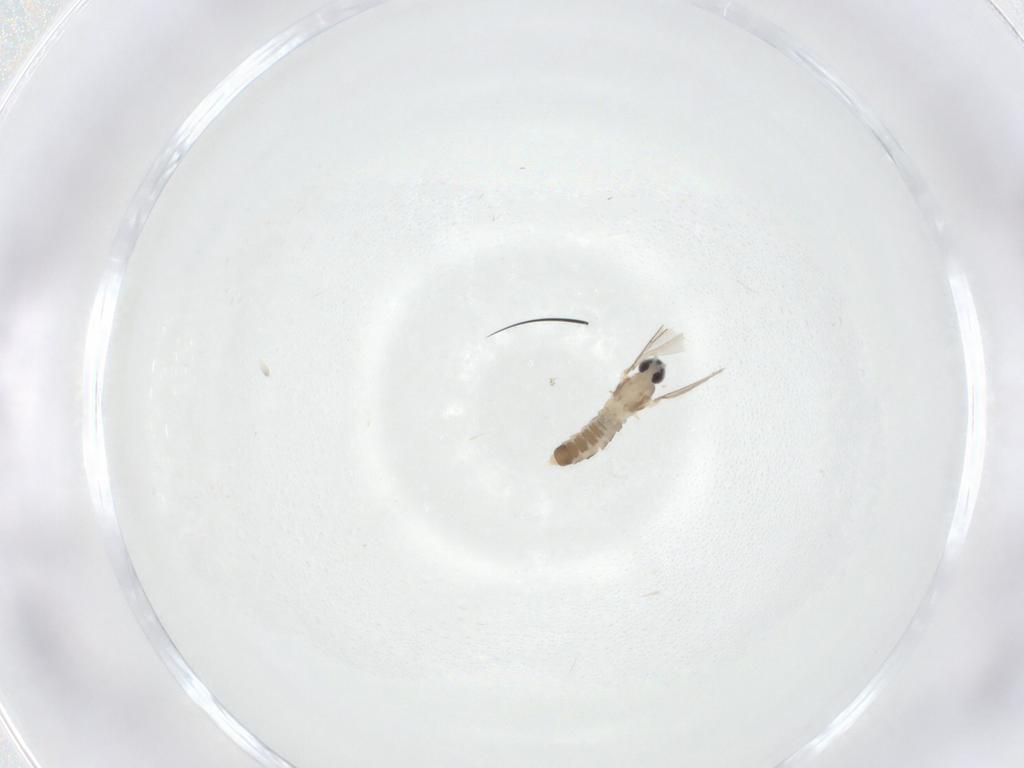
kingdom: Animalia
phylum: Arthropoda
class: Insecta
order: Diptera
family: Cecidomyiidae
